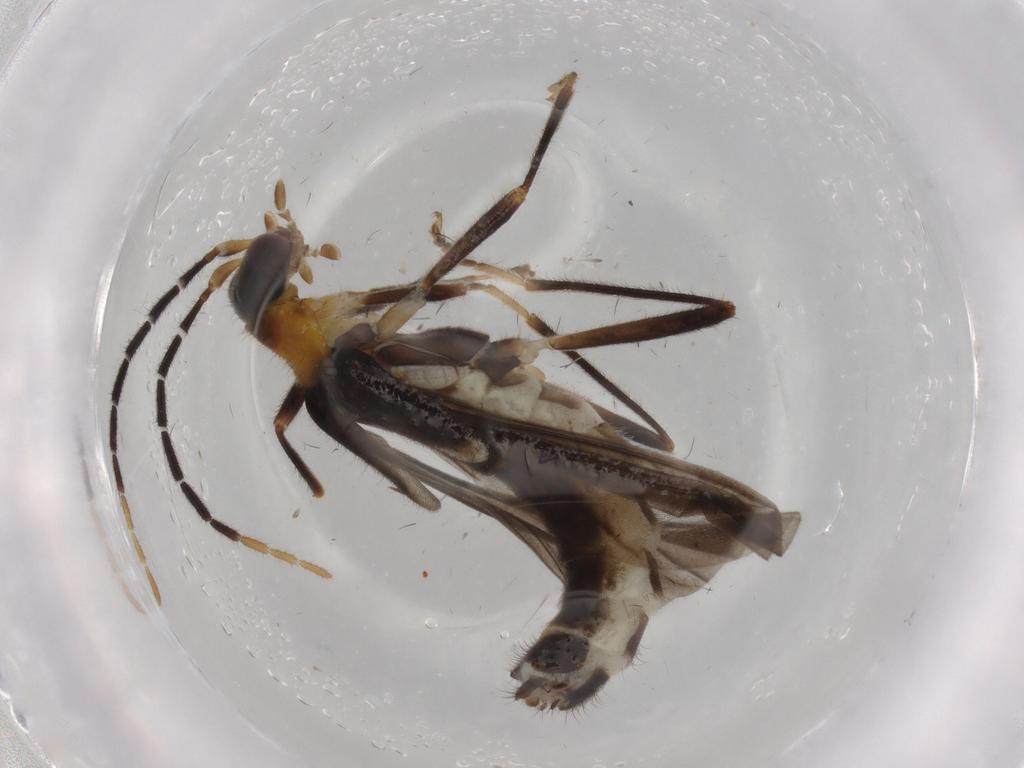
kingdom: Animalia
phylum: Arthropoda
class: Insecta
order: Coleoptera
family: Cantharidae
